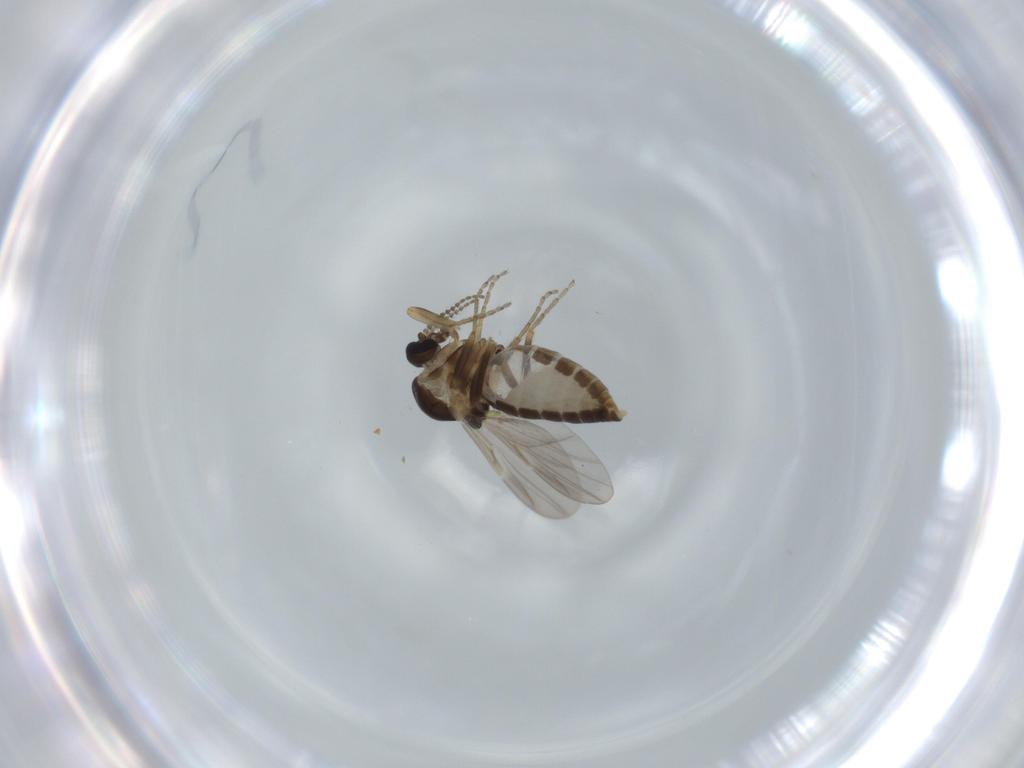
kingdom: Animalia
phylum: Arthropoda
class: Insecta
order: Diptera
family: Ceratopogonidae
